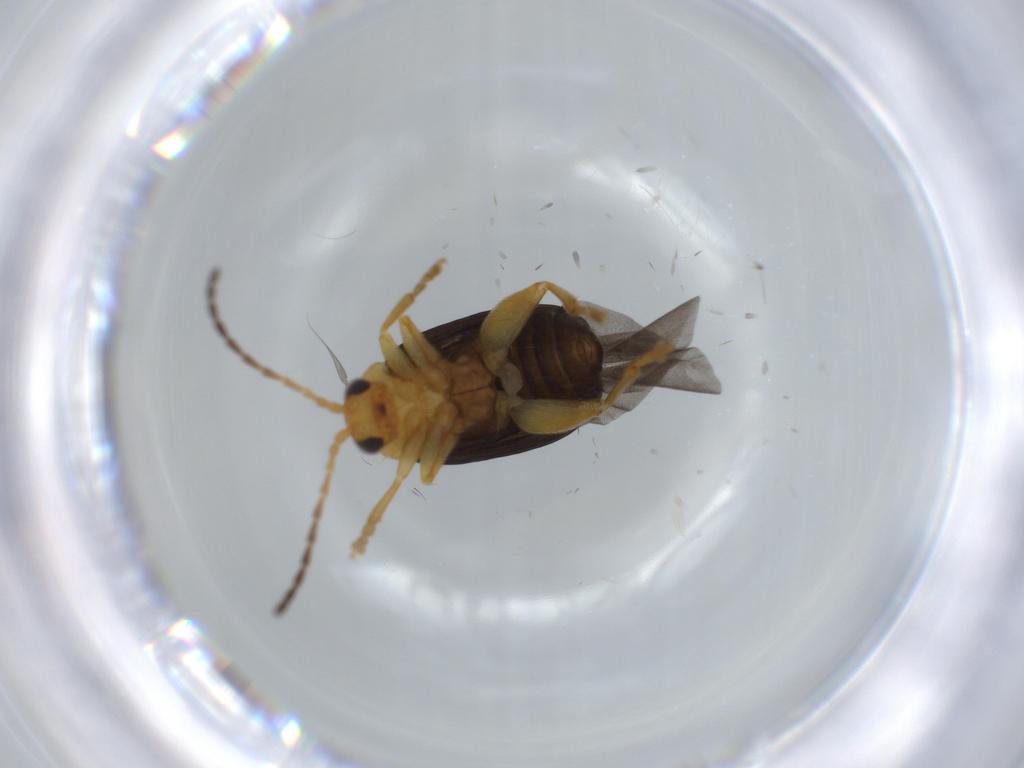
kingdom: Animalia
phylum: Arthropoda
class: Insecta
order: Coleoptera
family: Chrysomelidae
